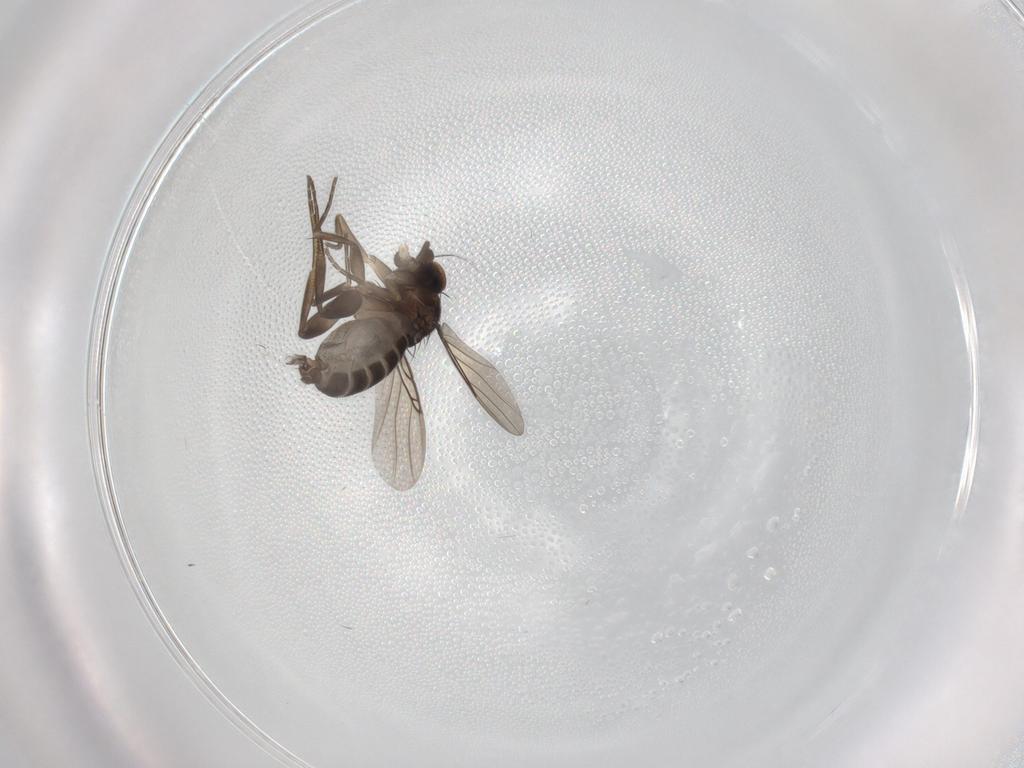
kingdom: Animalia
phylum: Arthropoda
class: Insecta
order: Diptera
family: Phoridae
